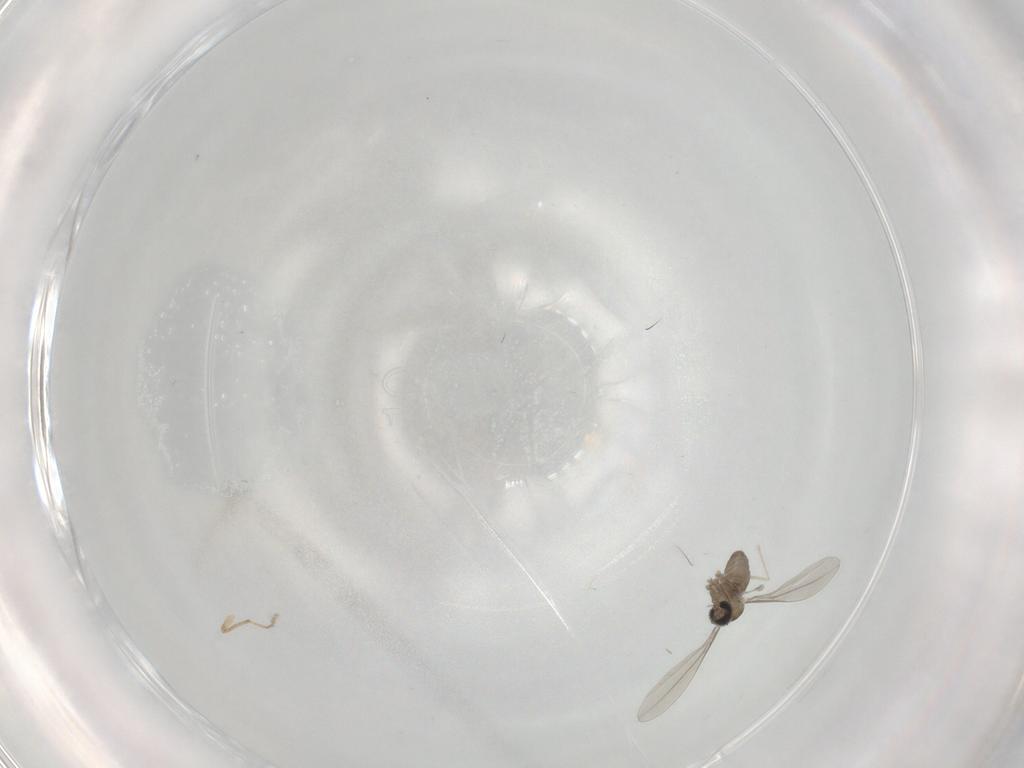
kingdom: Animalia
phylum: Arthropoda
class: Insecta
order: Diptera
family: Cecidomyiidae
